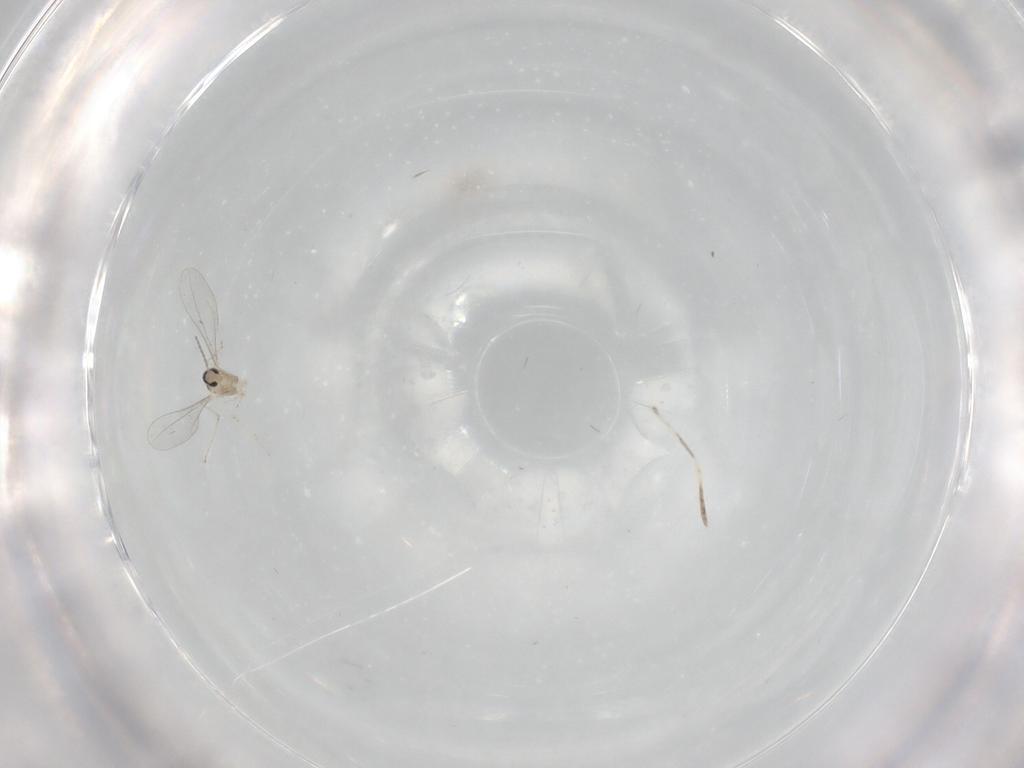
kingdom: Animalia
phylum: Arthropoda
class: Insecta
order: Diptera
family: Cecidomyiidae
